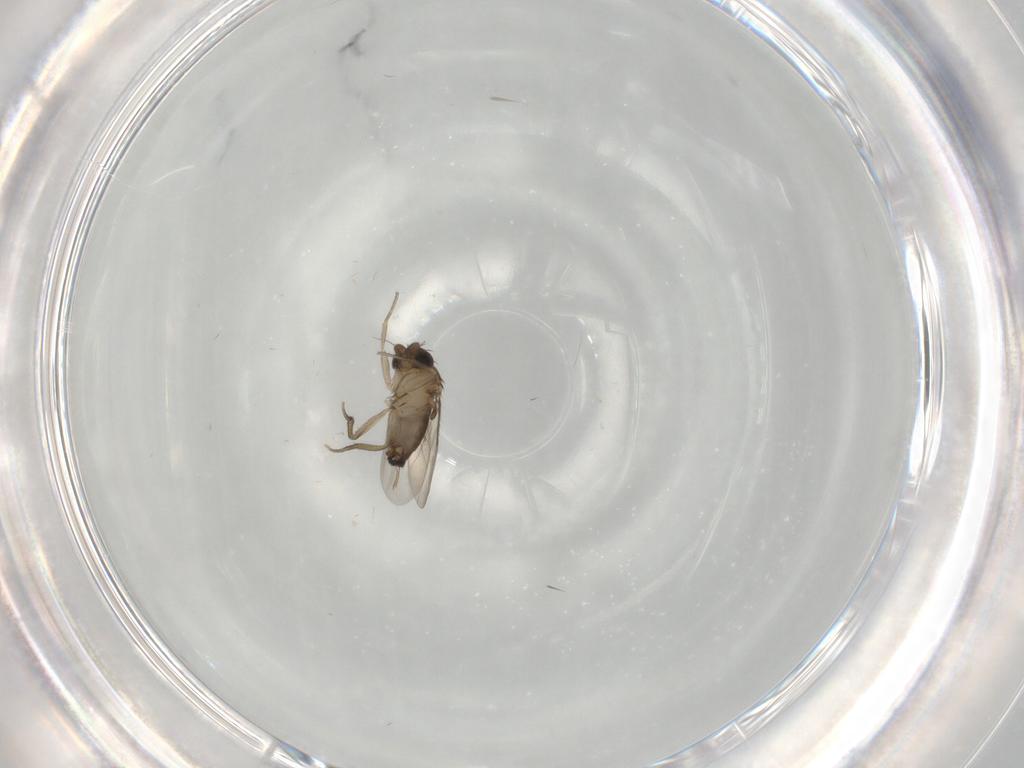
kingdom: Animalia
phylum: Arthropoda
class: Insecta
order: Diptera
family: Phoridae
